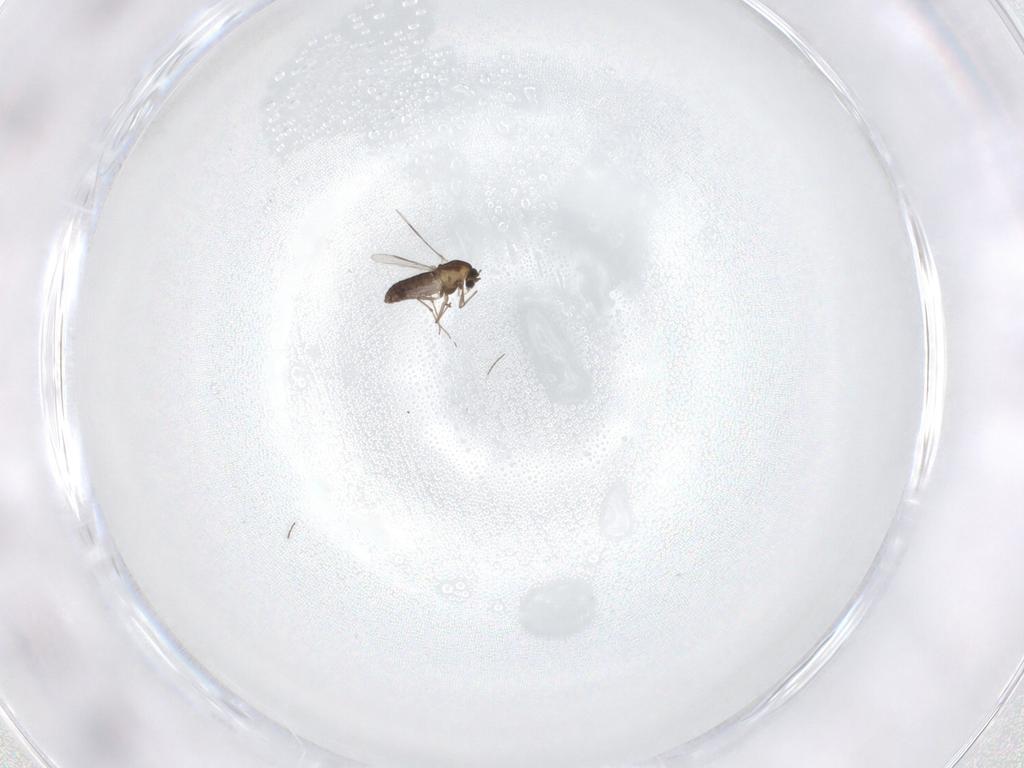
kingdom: Animalia
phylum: Arthropoda
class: Insecta
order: Diptera
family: Chironomidae
